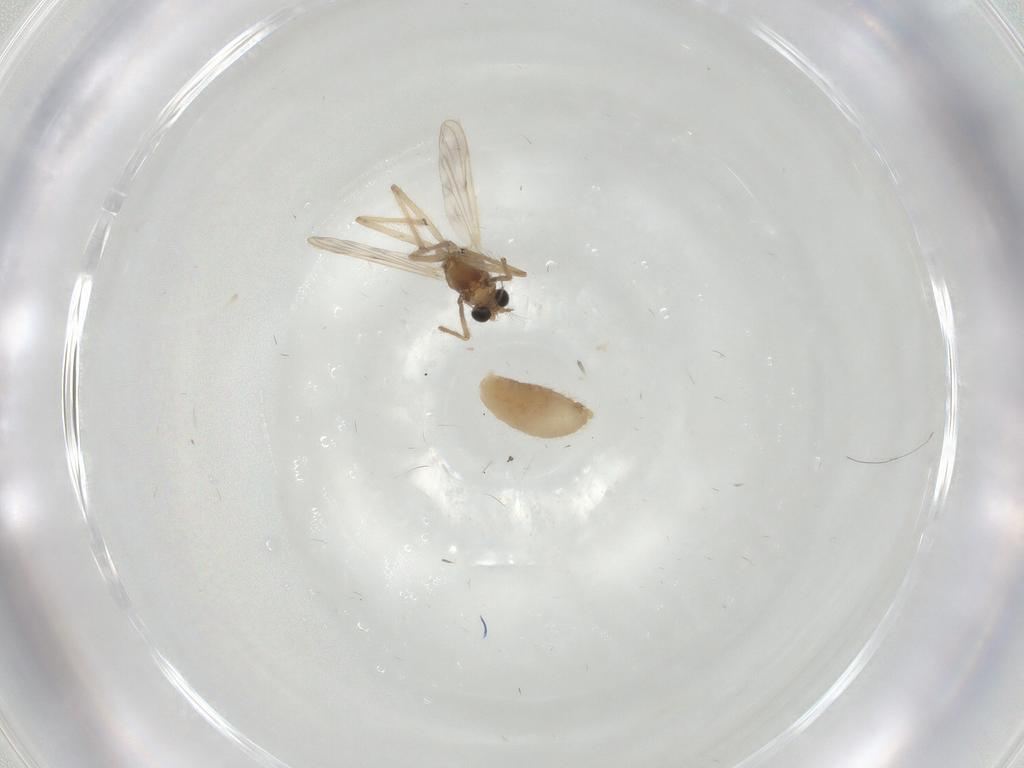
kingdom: Animalia
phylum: Arthropoda
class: Insecta
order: Diptera
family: Chironomidae
